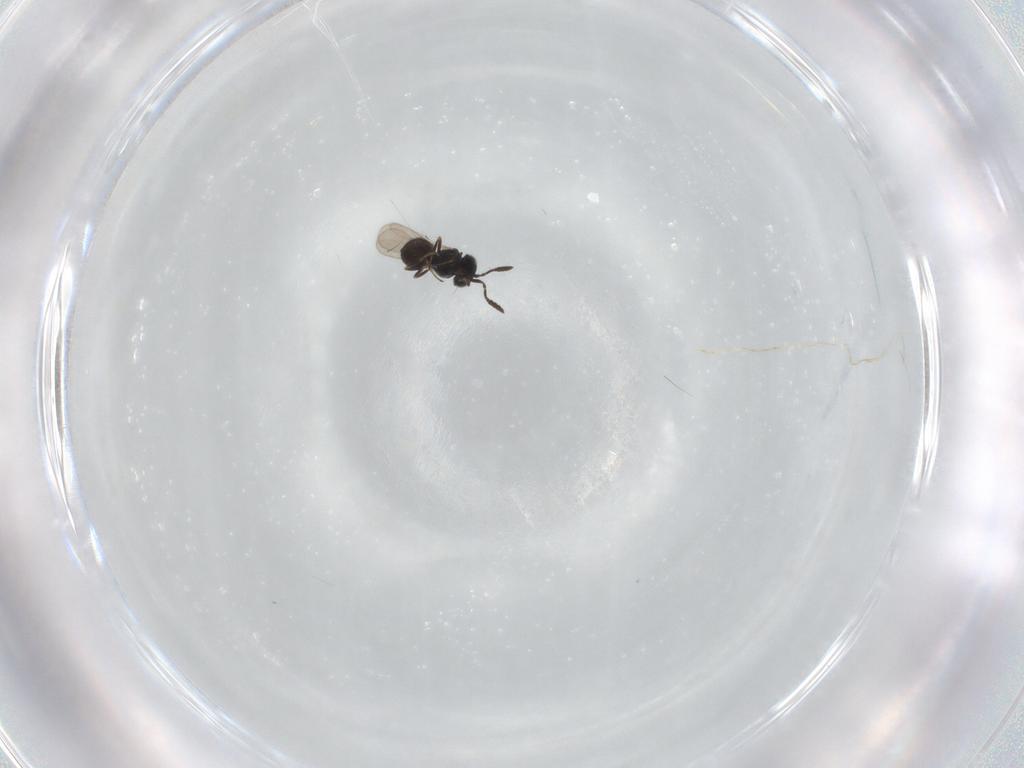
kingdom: Animalia
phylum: Arthropoda
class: Insecta
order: Hymenoptera
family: Scelionidae
